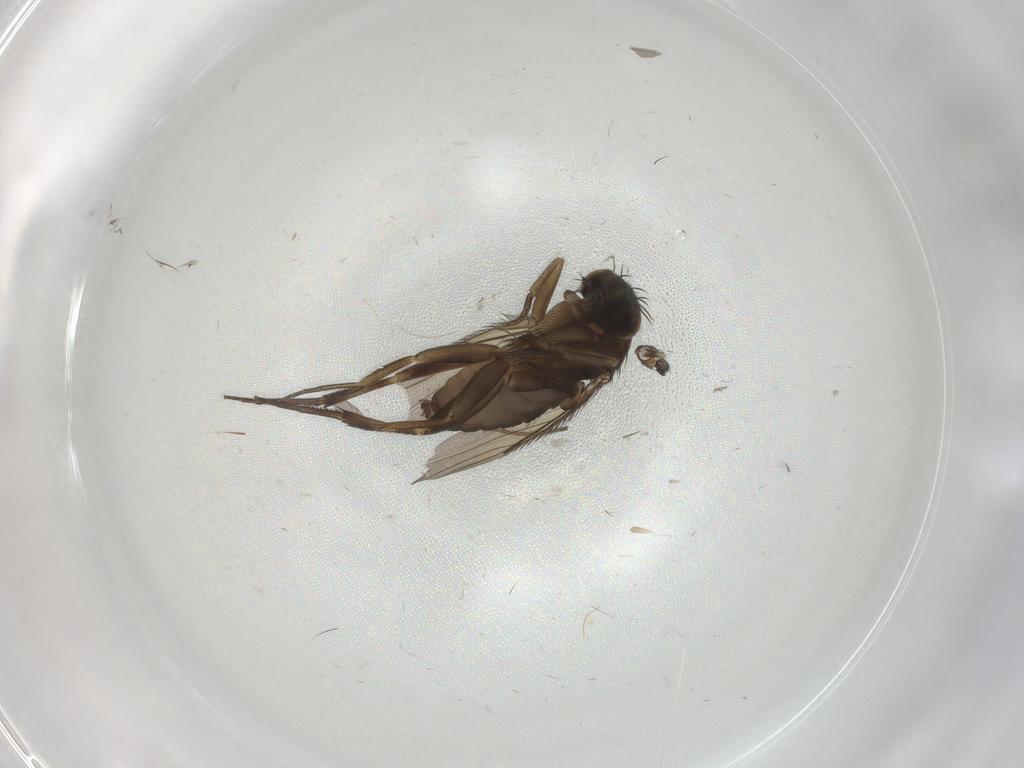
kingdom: Animalia
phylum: Arthropoda
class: Insecta
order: Diptera
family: Phoridae
